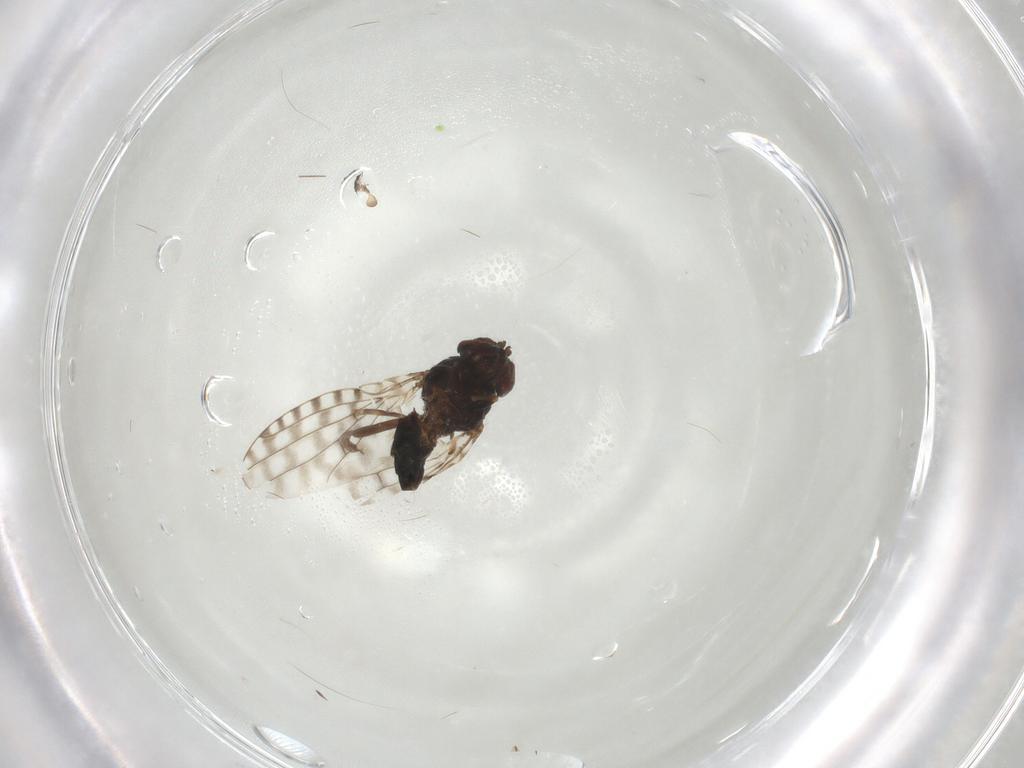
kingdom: Animalia
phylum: Arthropoda
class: Insecta
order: Diptera
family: Ephydridae
